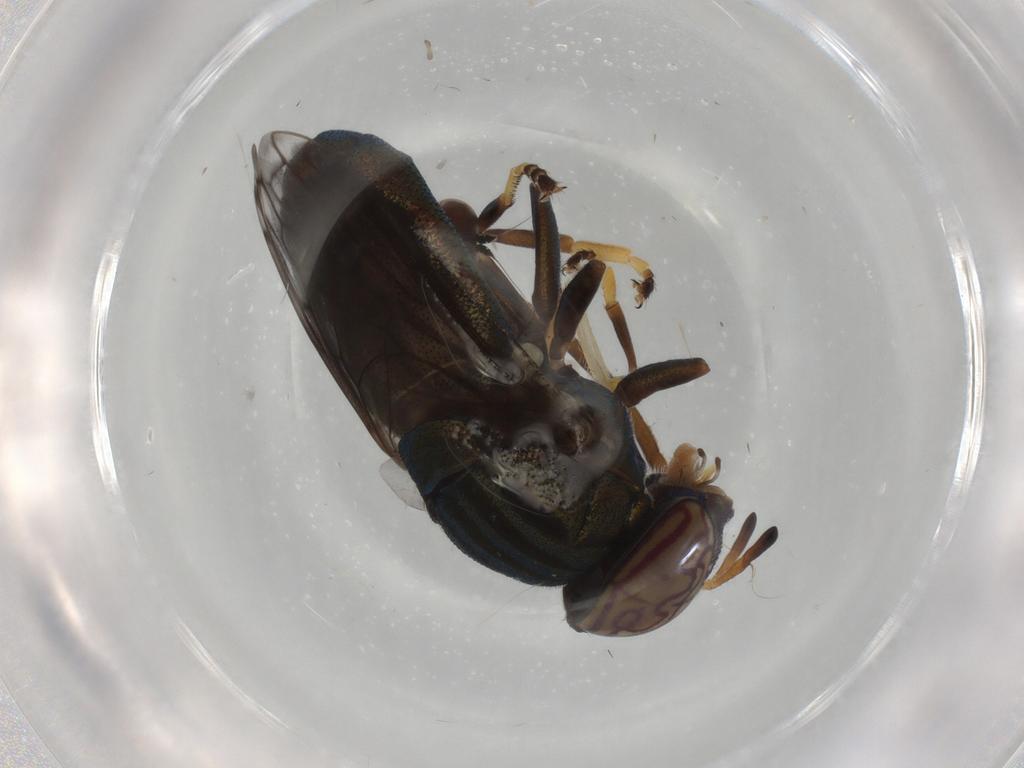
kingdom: Animalia
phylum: Arthropoda
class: Insecta
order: Diptera
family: Syrphidae
